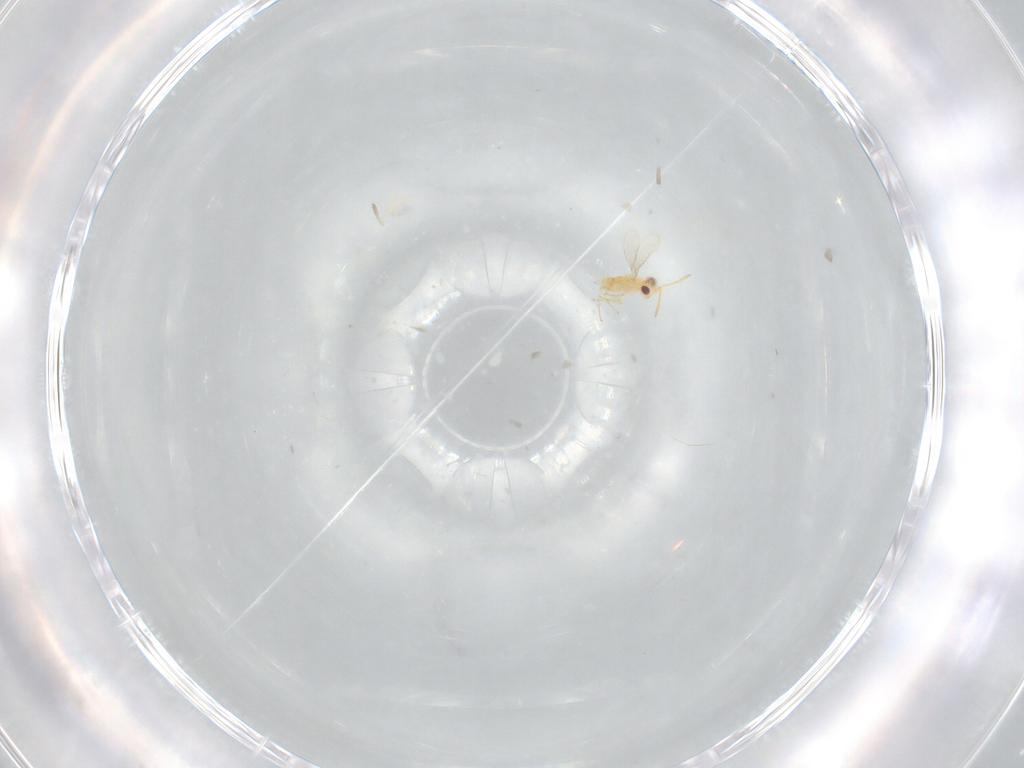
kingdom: Animalia
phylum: Arthropoda
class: Insecta
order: Hymenoptera
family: Aphelinidae
